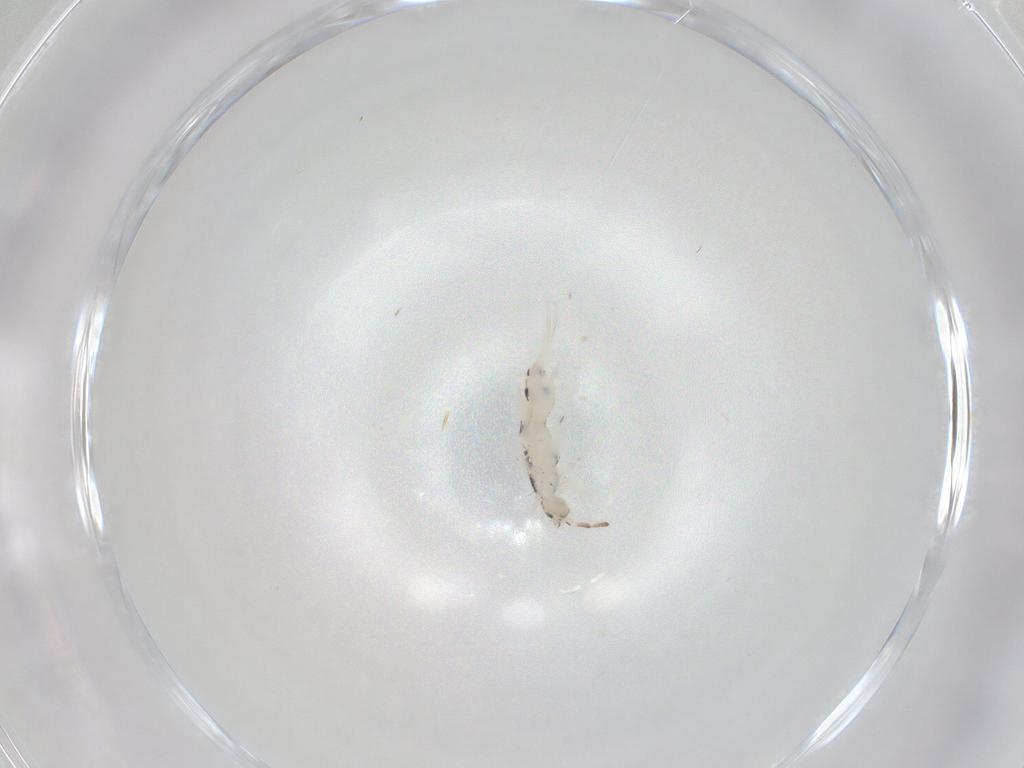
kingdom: Animalia
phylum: Arthropoda
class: Collembola
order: Entomobryomorpha
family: Entomobryidae
